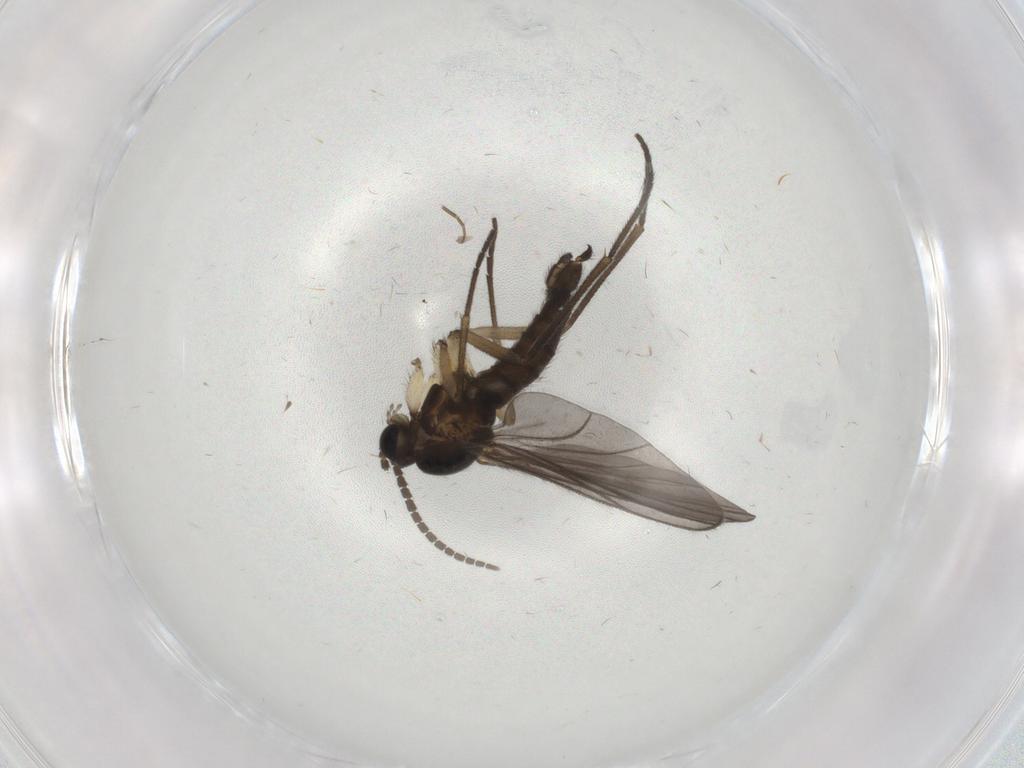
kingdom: Animalia
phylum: Arthropoda
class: Insecta
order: Diptera
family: Sciaridae
